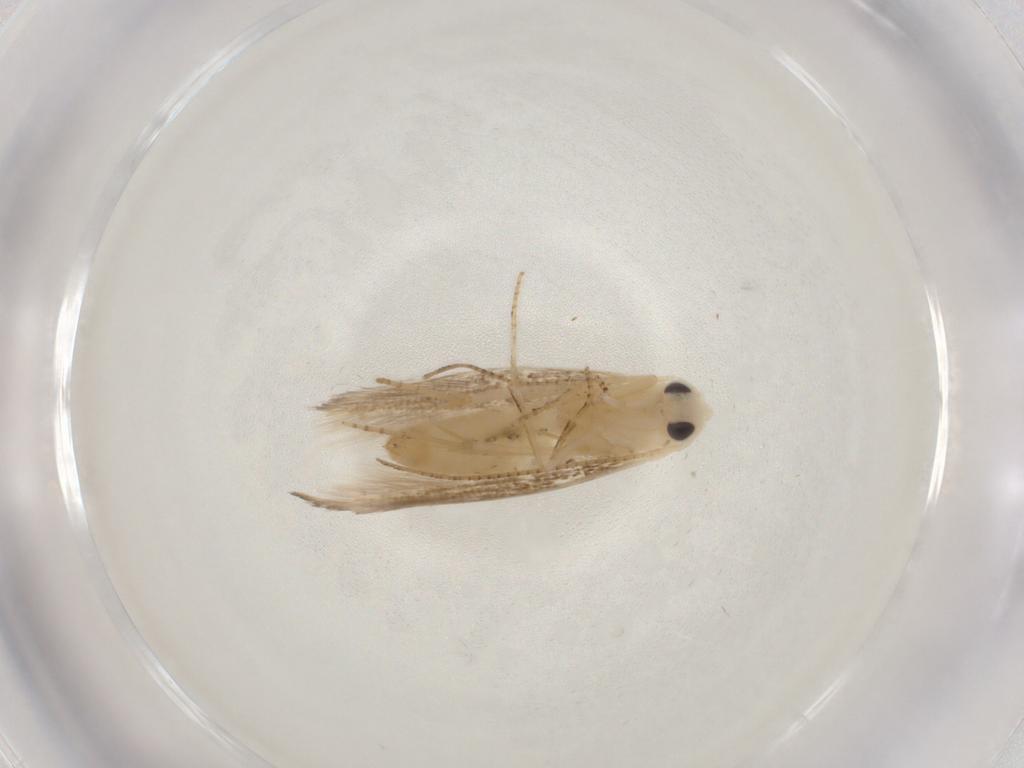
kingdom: Animalia
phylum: Arthropoda
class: Insecta
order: Lepidoptera
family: Bucculatricidae
